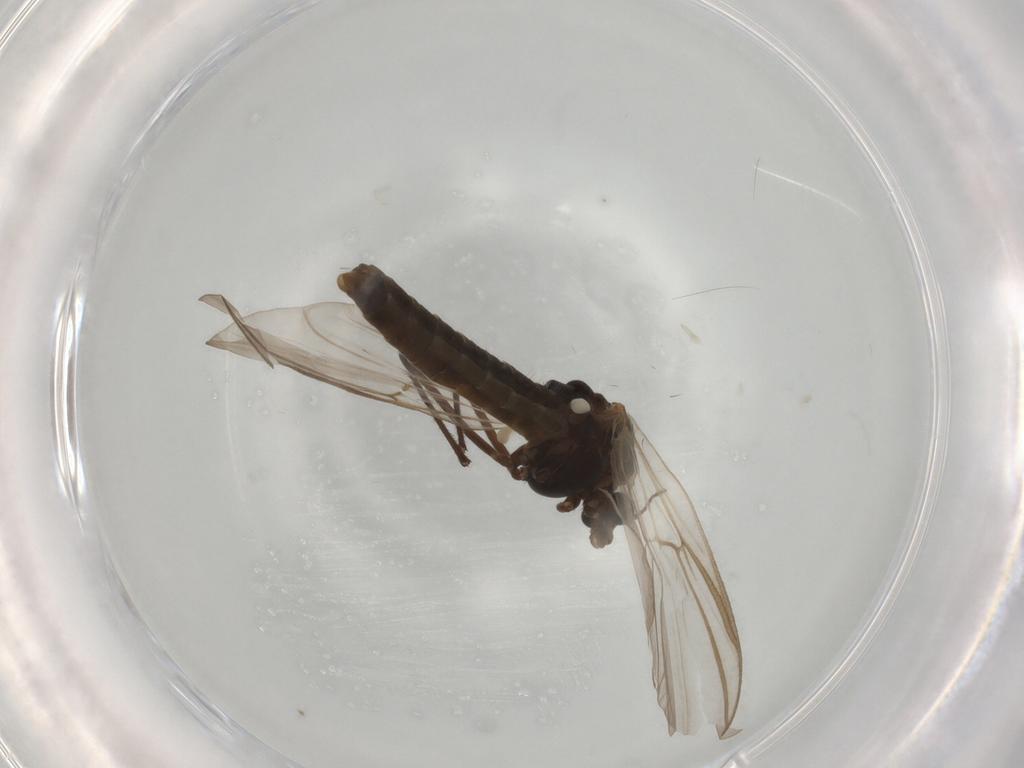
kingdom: Animalia
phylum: Arthropoda
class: Insecta
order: Diptera
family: Chironomidae
